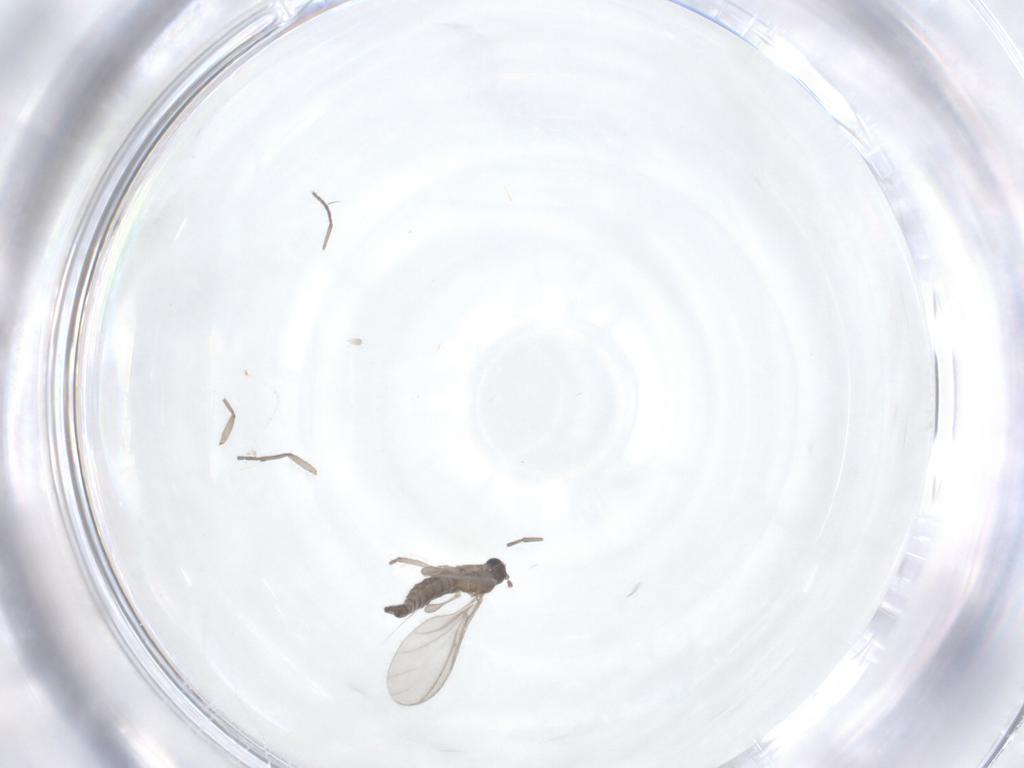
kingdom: Animalia
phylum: Arthropoda
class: Insecta
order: Diptera
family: Sciaridae
